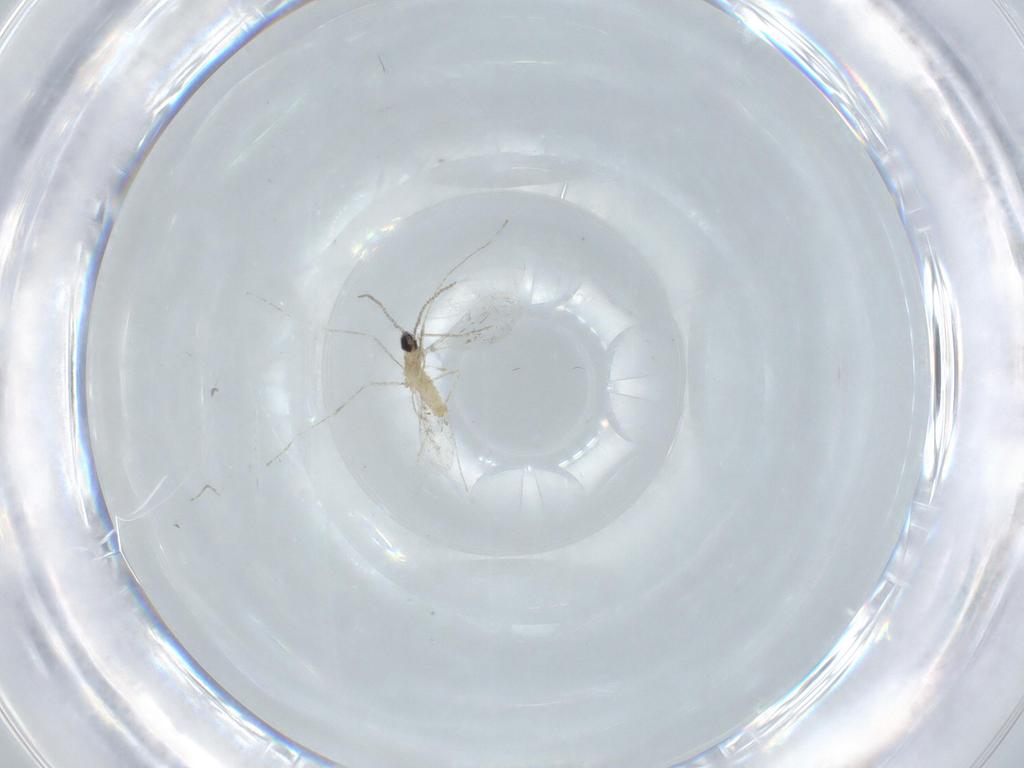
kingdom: Animalia
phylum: Arthropoda
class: Insecta
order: Diptera
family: Cecidomyiidae
